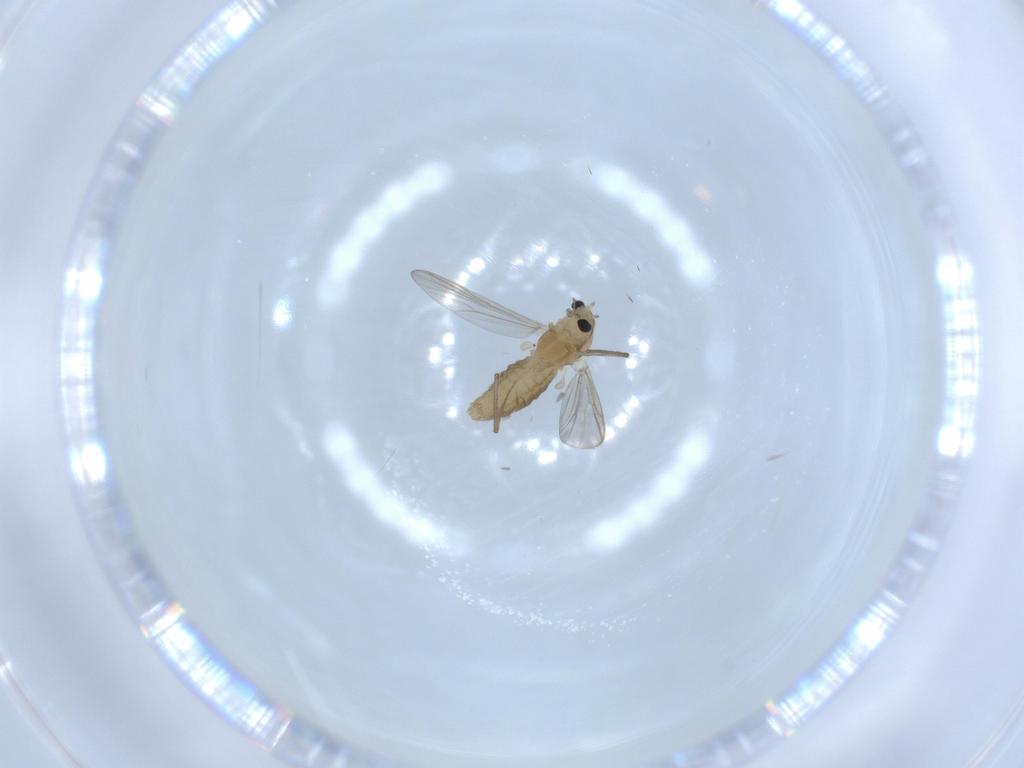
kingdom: Animalia
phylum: Arthropoda
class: Insecta
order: Diptera
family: Chironomidae
